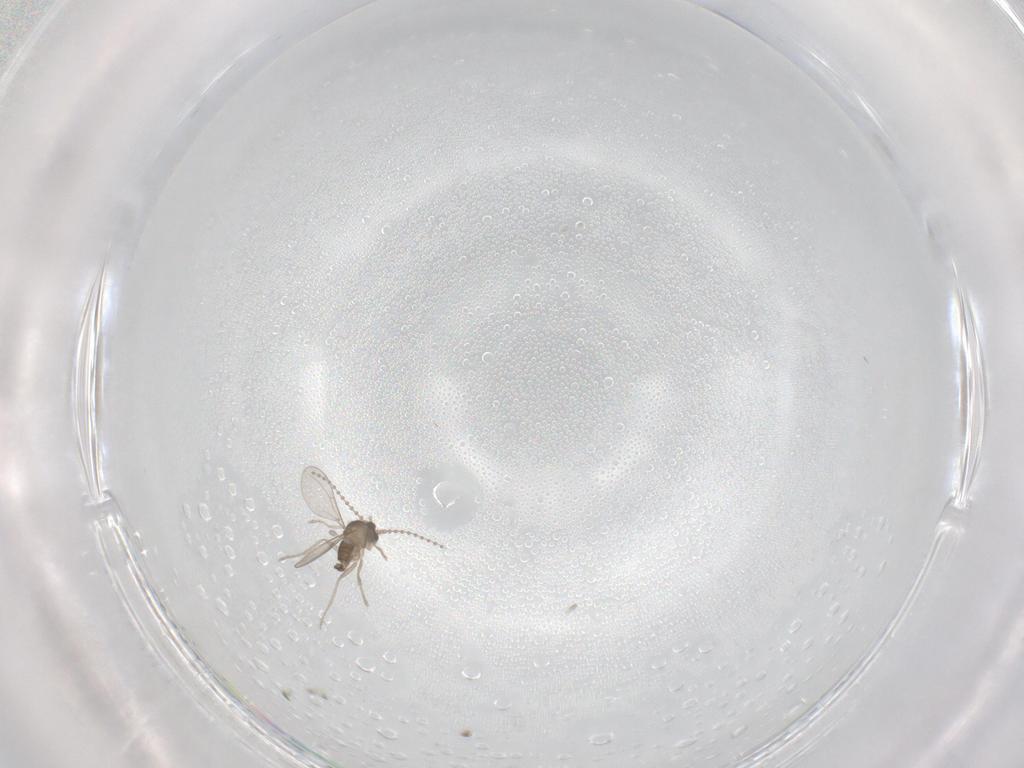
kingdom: Animalia
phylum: Arthropoda
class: Insecta
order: Diptera
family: Cecidomyiidae
